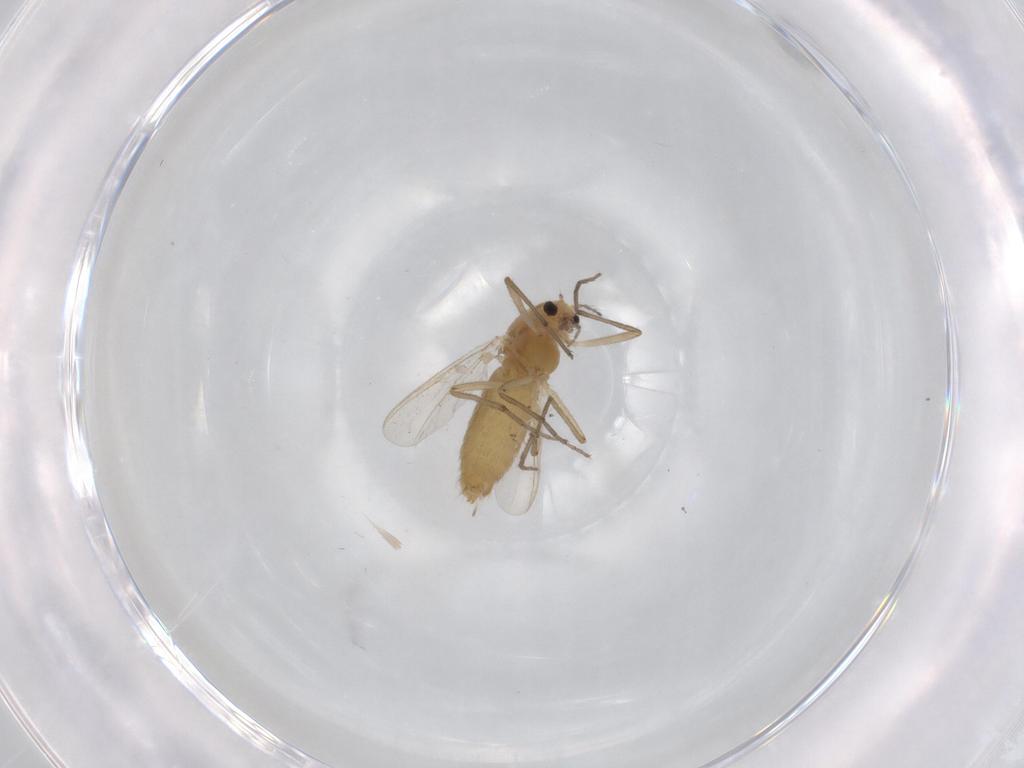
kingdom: Animalia
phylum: Arthropoda
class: Insecta
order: Diptera
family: Chironomidae
